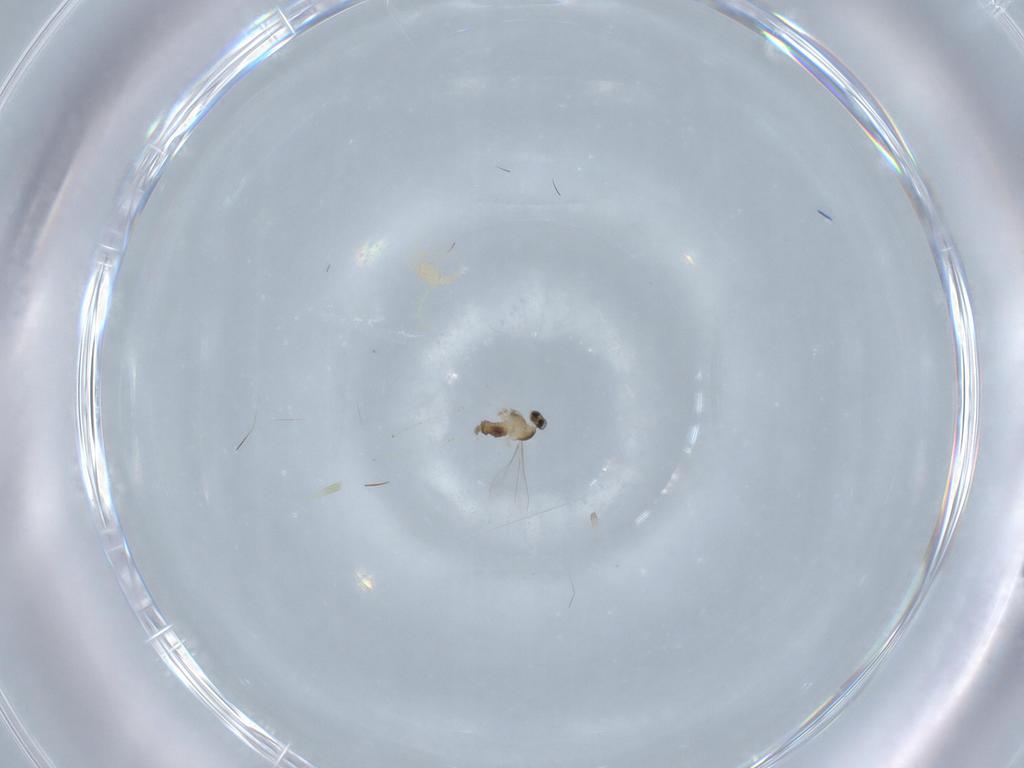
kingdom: Animalia
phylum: Arthropoda
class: Insecta
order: Diptera
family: Cecidomyiidae
